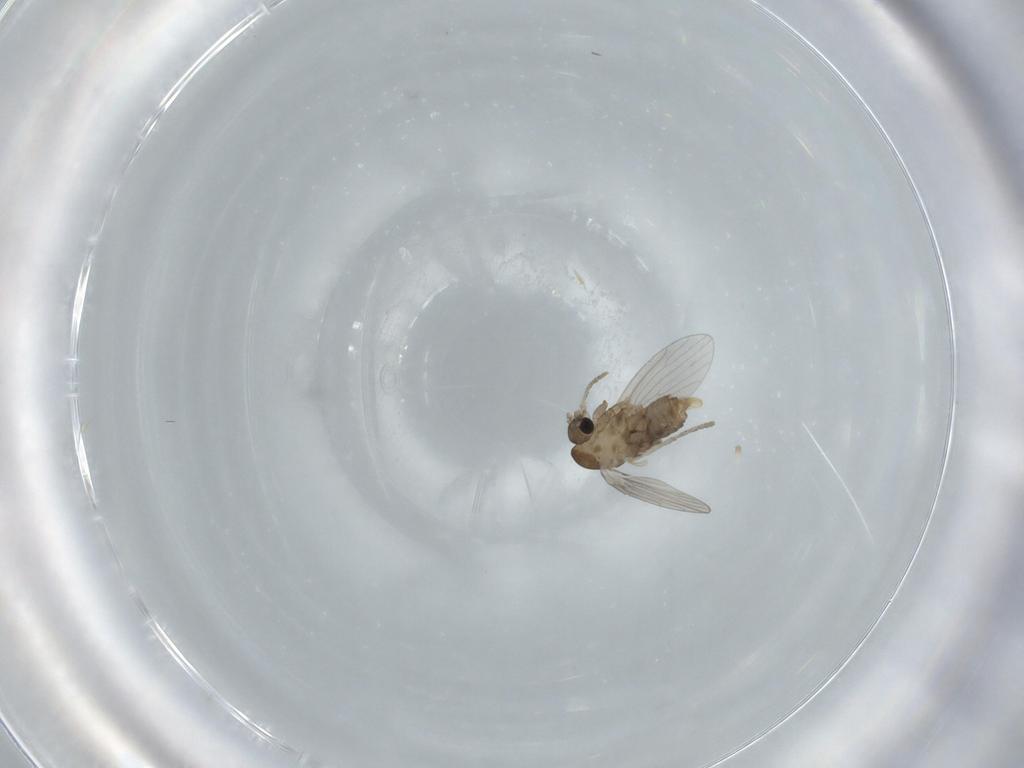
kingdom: Animalia
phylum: Arthropoda
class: Insecta
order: Diptera
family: Psychodidae
